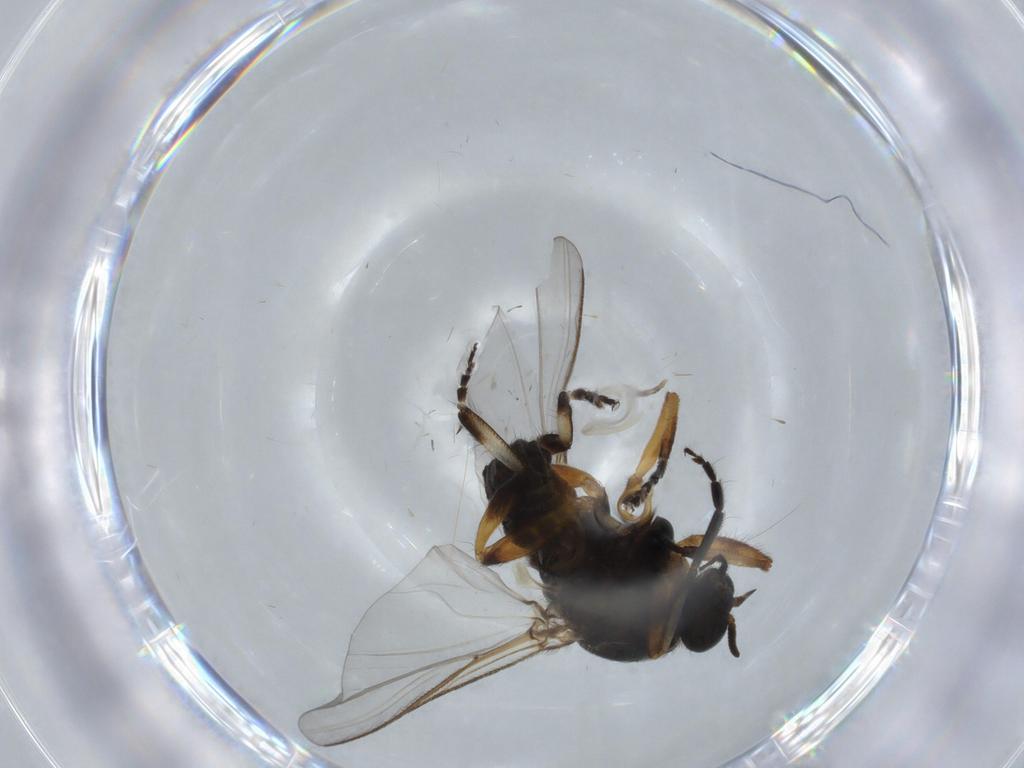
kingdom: Animalia
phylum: Arthropoda
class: Insecta
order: Diptera
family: Simuliidae
